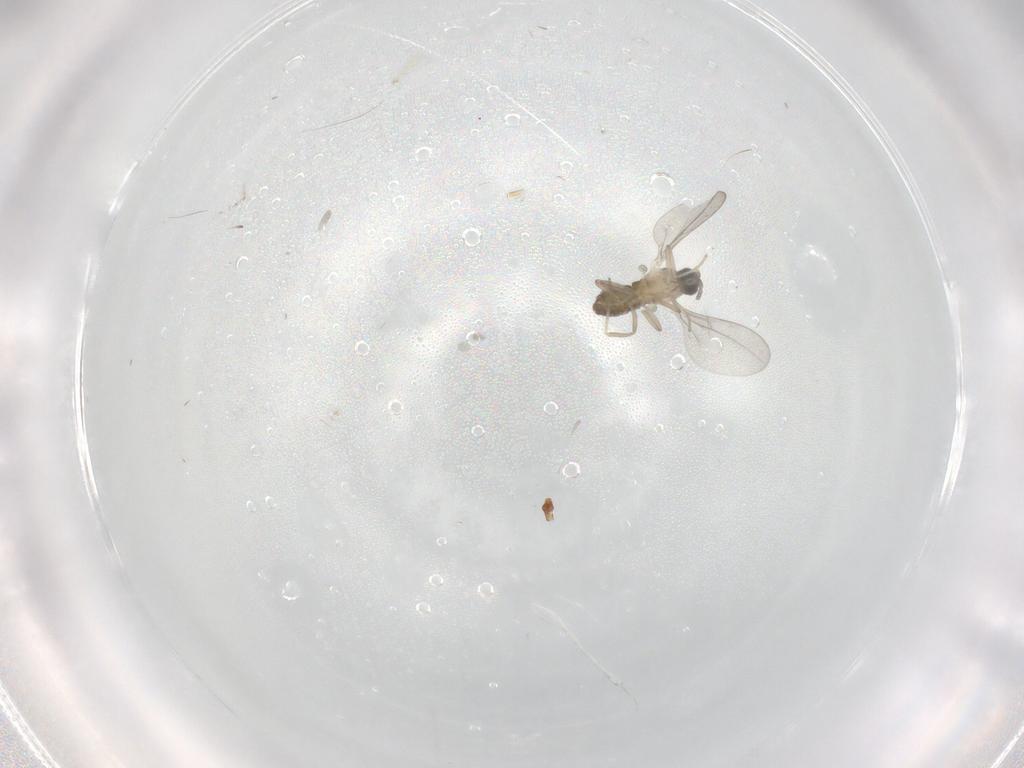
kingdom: Animalia
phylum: Arthropoda
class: Insecta
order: Diptera
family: Cecidomyiidae
